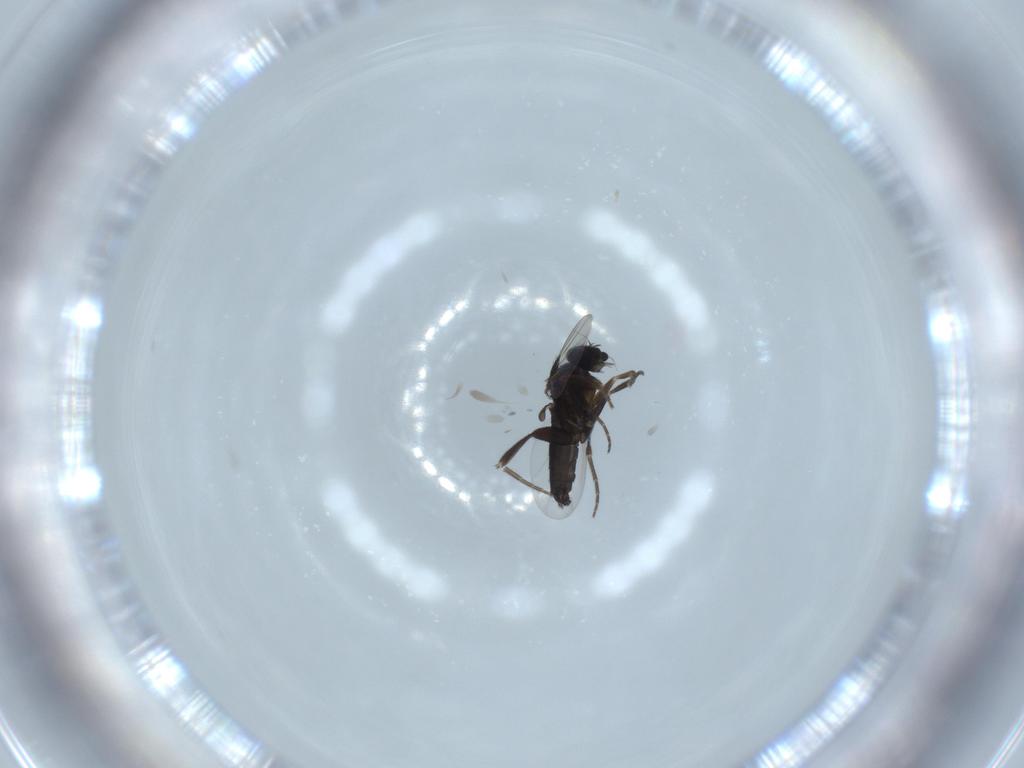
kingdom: Animalia
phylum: Arthropoda
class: Insecta
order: Diptera
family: Phoridae
